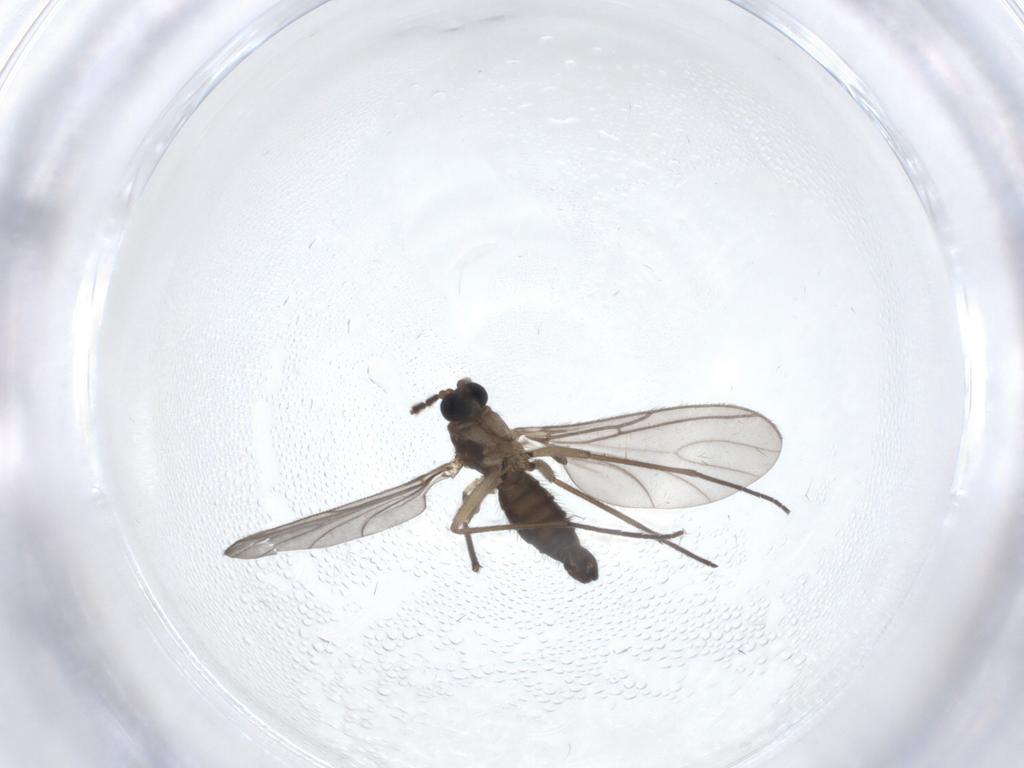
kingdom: Animalia
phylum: Arthropoda
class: Insecta
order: Diptera
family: Sciaridae
